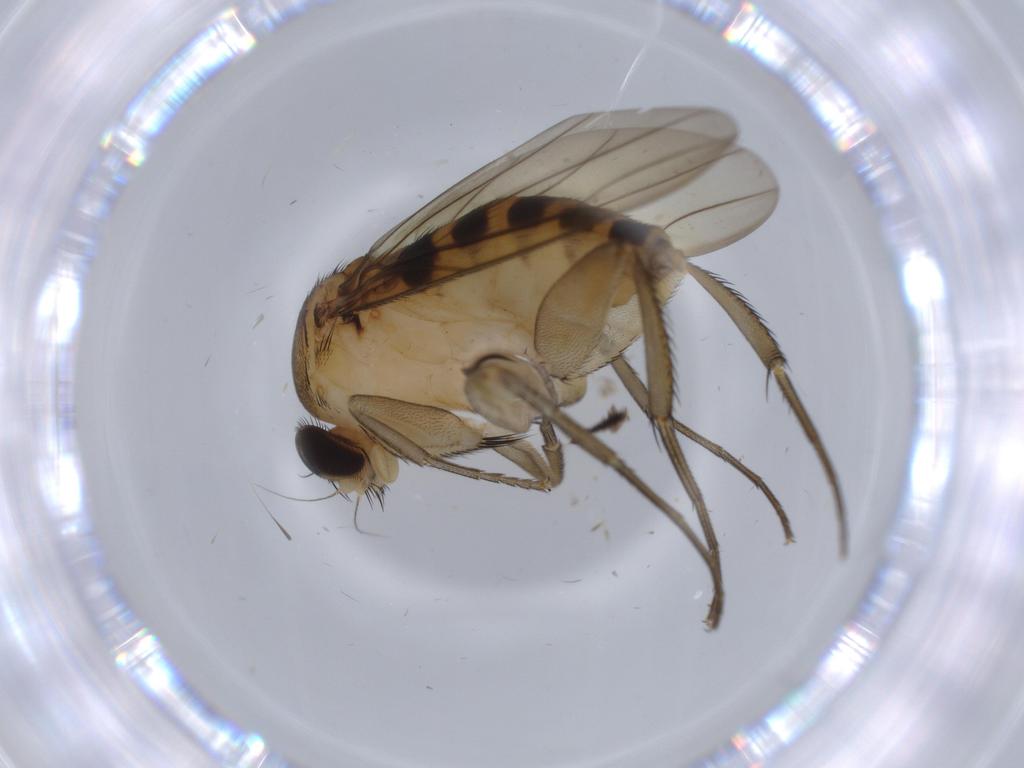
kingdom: Animalia
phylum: Arthropoda
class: Insecta
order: Diptera
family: Phoridae
